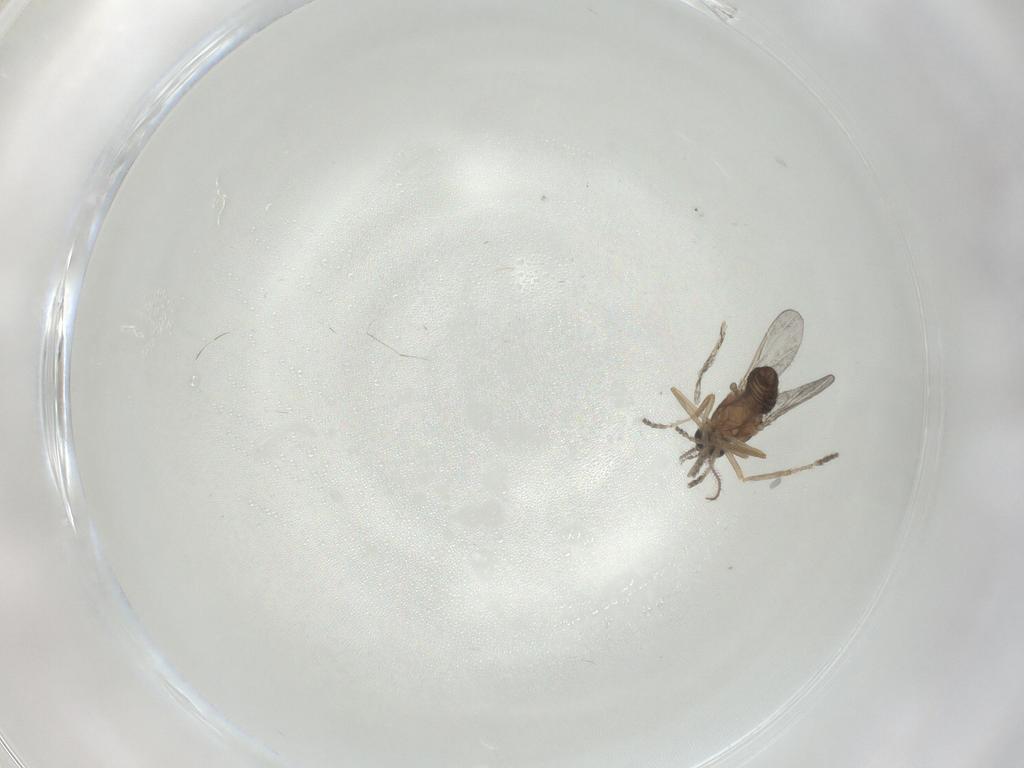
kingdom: Animalia
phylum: Arthropoda
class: Insecta
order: Diptera
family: Ceratopogonidae
